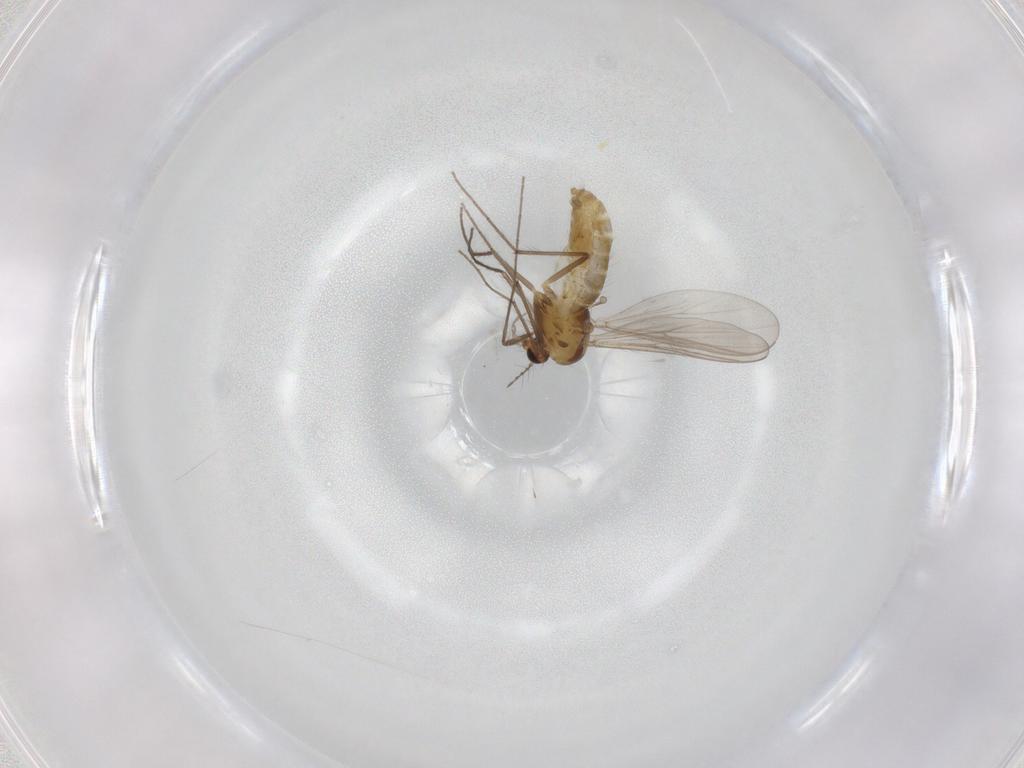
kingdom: Animalia
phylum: Arthropoda
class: Insecta
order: Diptera
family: Chironomidae
